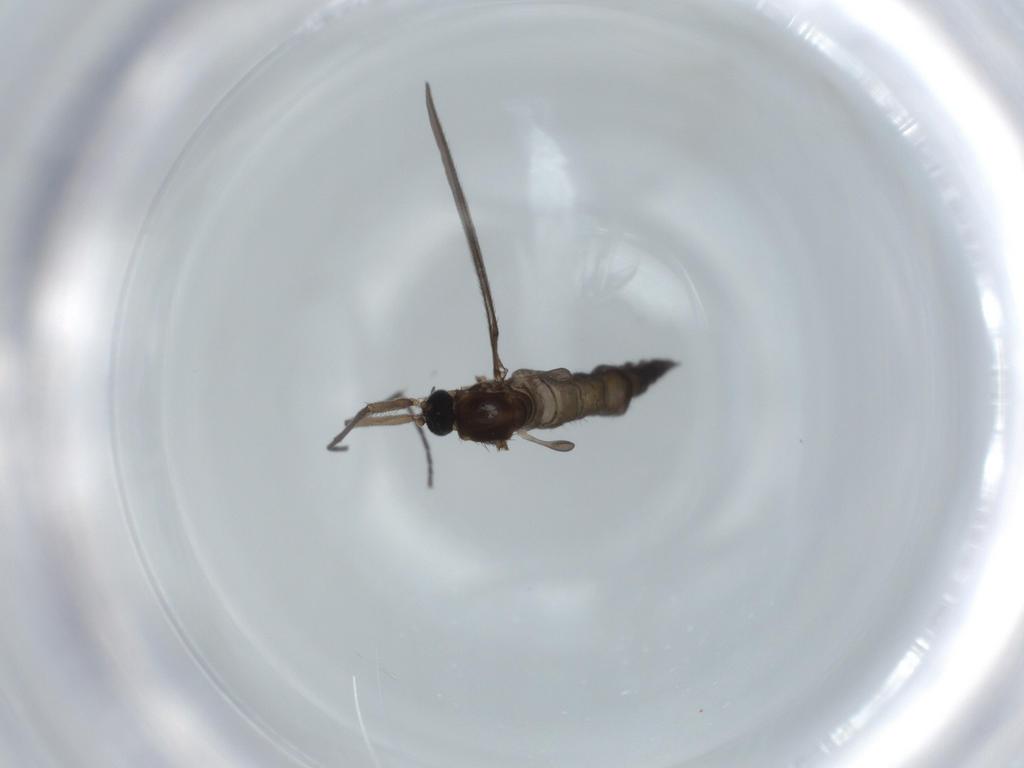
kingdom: Animalia
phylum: Arthropoda
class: Insecta
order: Diptera
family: Sciaridae
